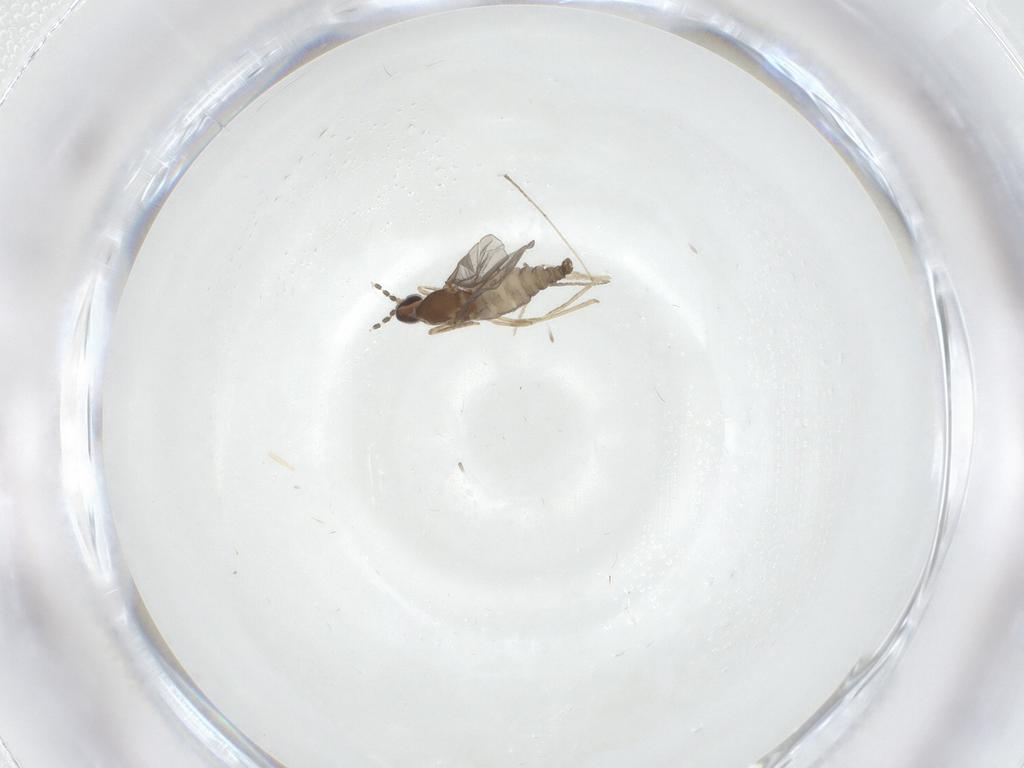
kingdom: Animalia
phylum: Arthropoda
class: Insecta
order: Diptera
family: Cecidomyiidae
